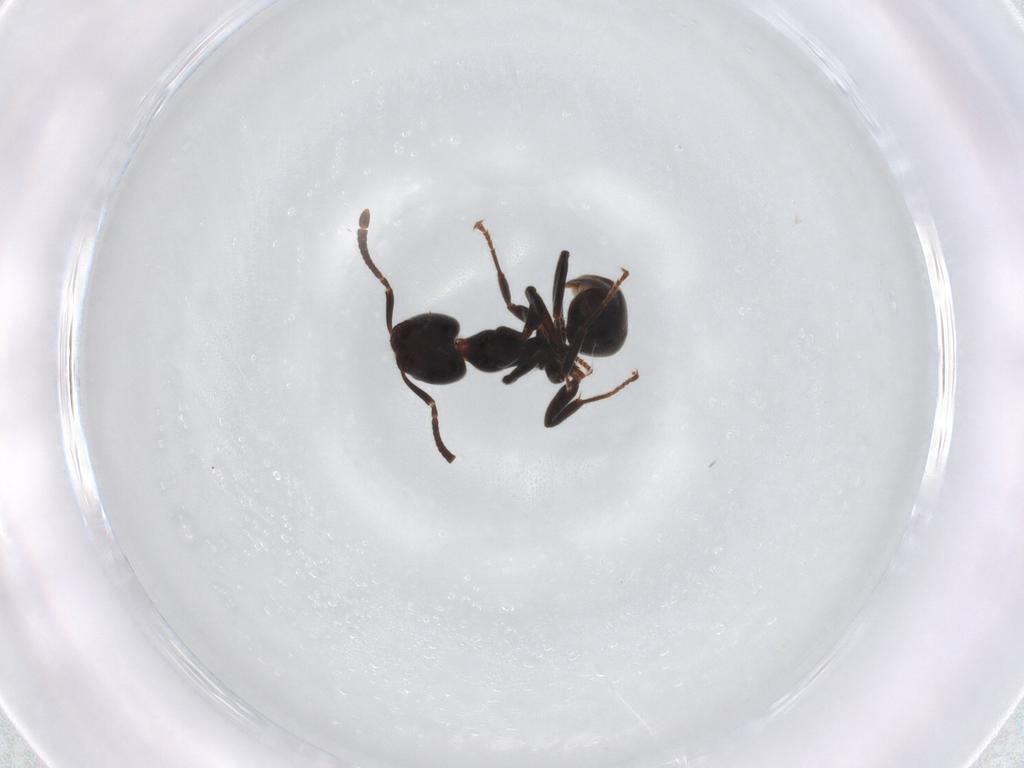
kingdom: Animalia
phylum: Arthropoda
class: Insecta
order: Hymenoptera
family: Formicidae
